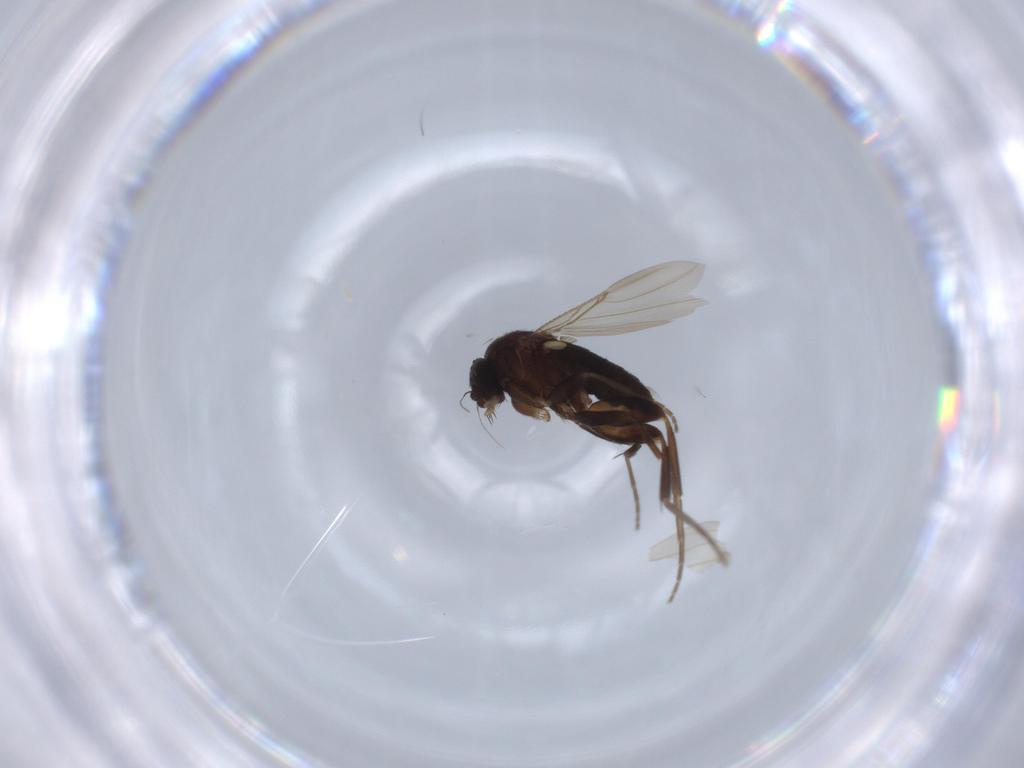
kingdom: Animalia
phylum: Arthropoda
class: Insecta
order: Diptera
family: Phoridae
